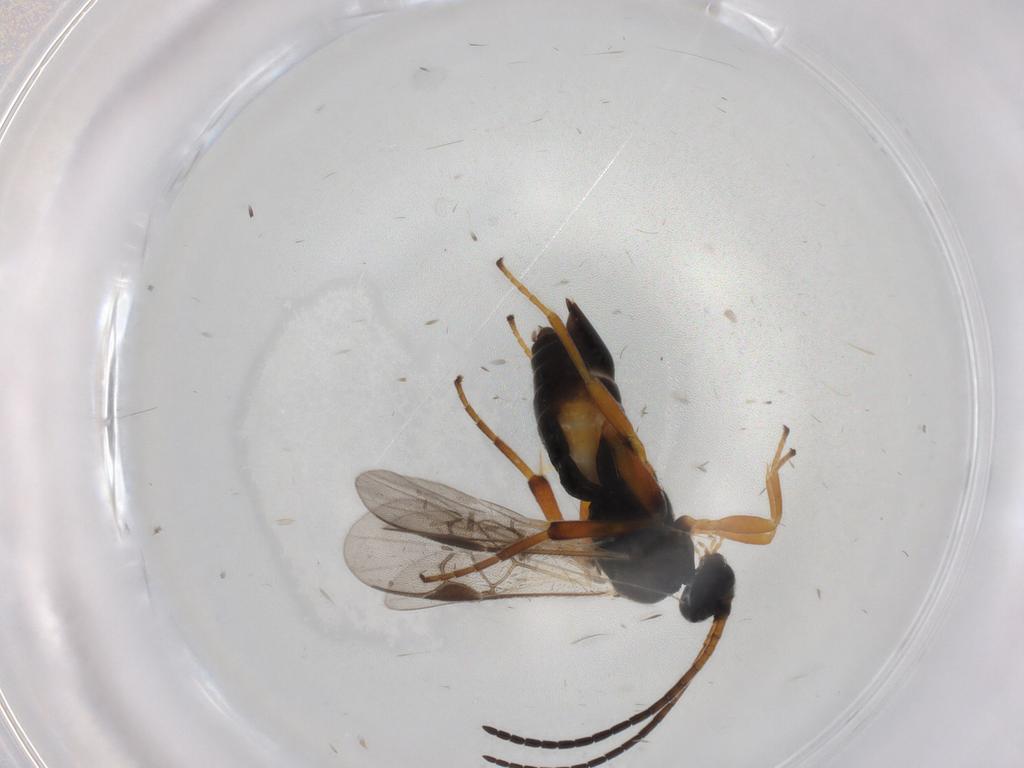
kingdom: Animalia
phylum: Arthropoda
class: Insecta
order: Hymenoptera
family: Braconidae
